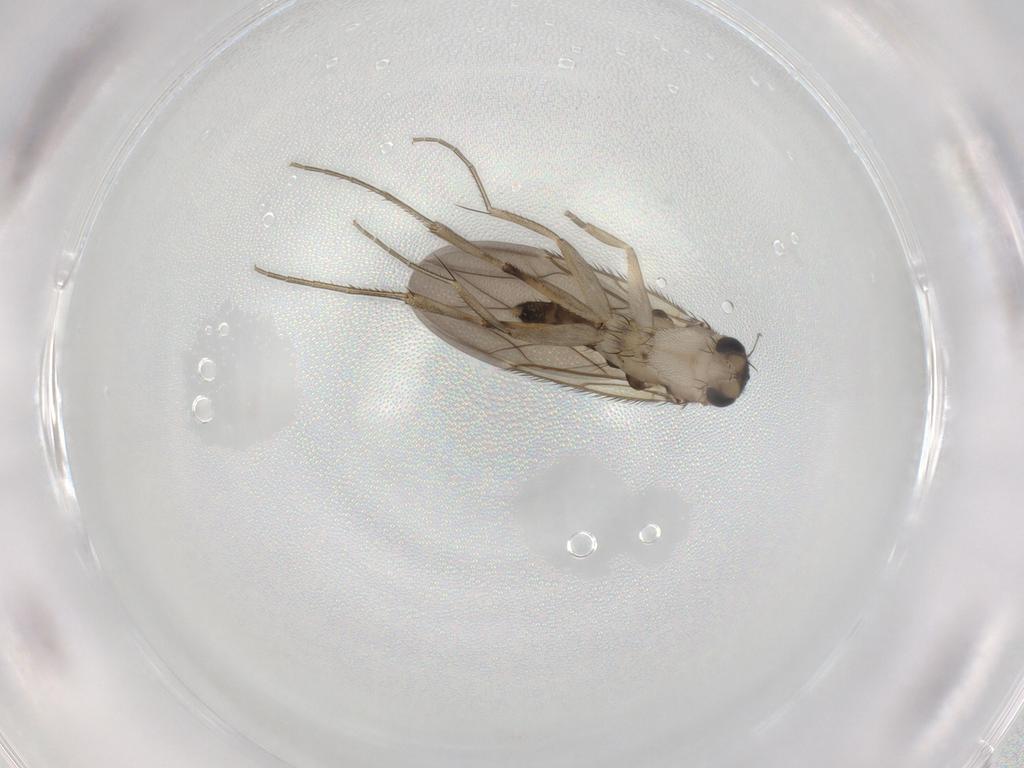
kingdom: Animalia
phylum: Arthropoda
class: Insecta
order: Diptera
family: Phoridae
